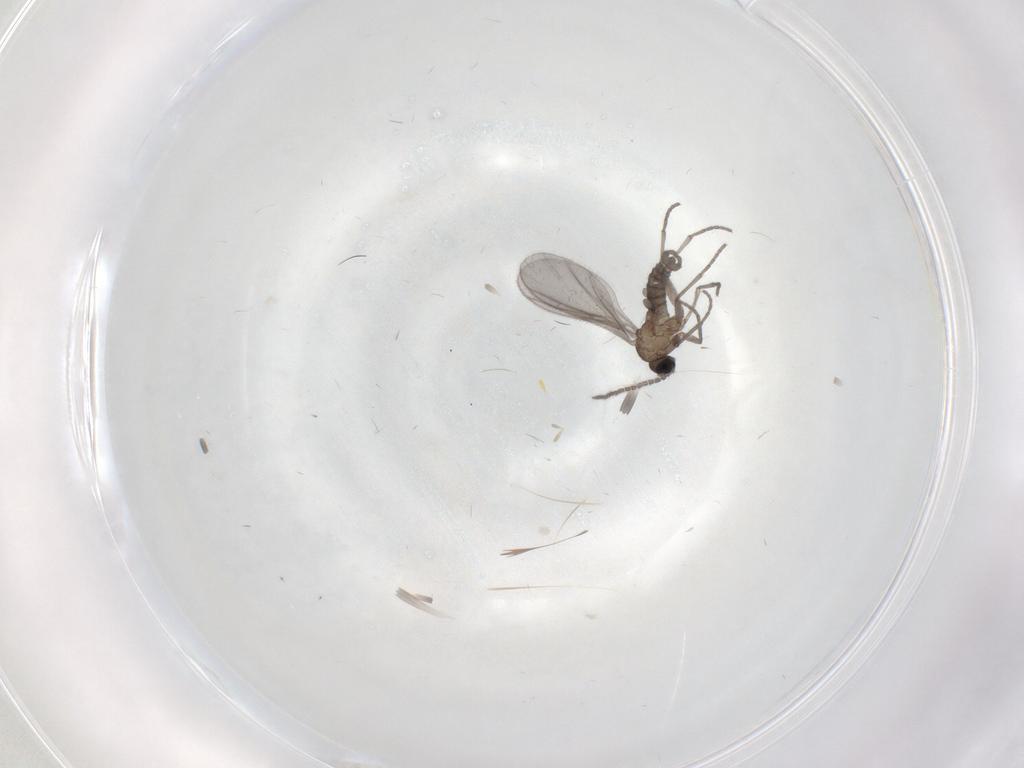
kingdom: Animalia
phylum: Arthropoda
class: Insecta
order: Diptera
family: Sciaridae
